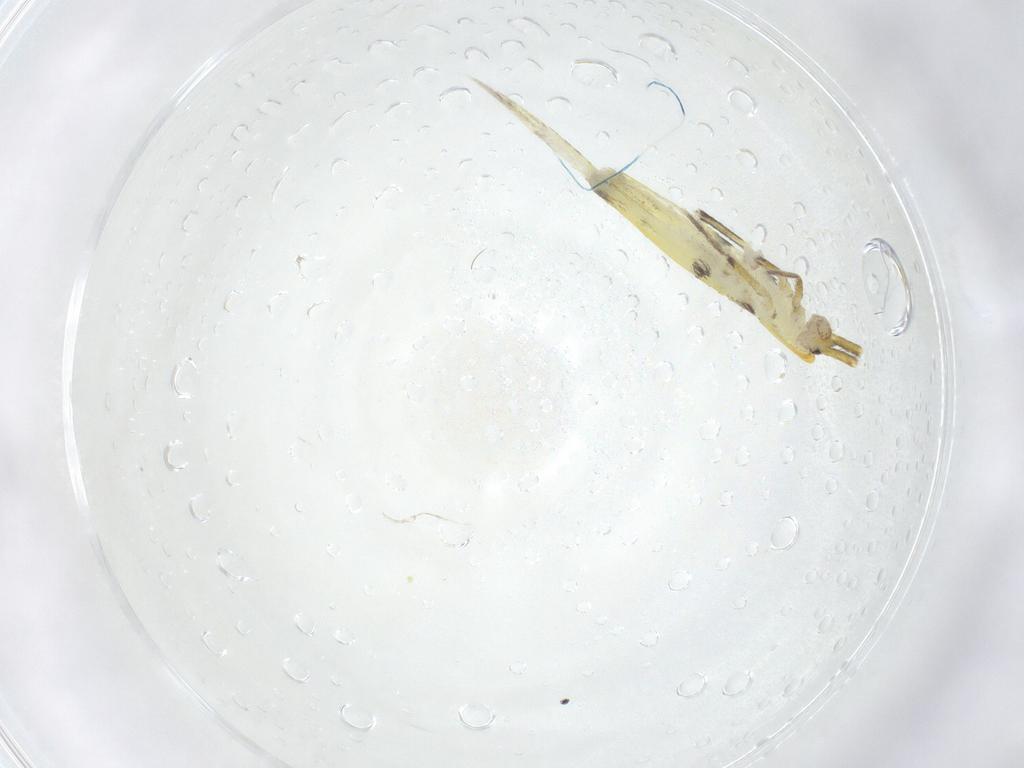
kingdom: Animalia
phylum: Arthropoda
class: Collembola
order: Entomobryomorpha
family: Entomobryidae
